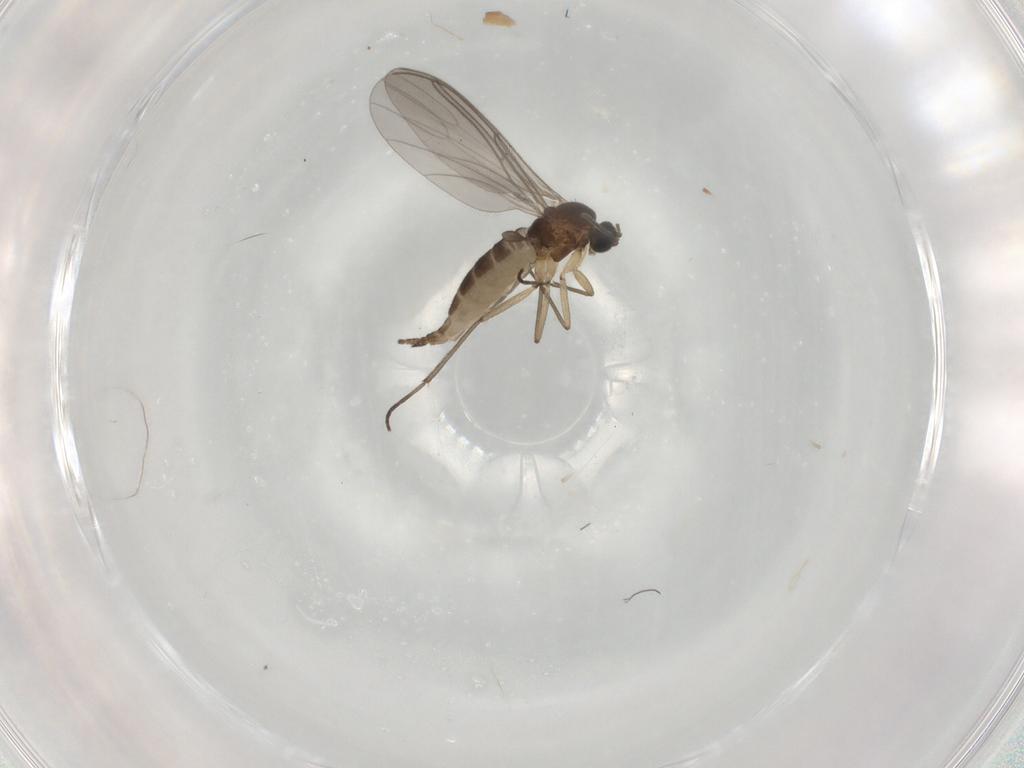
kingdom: Animalia
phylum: Arthropoda
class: Insecta
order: Diptera
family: Sciaridae
